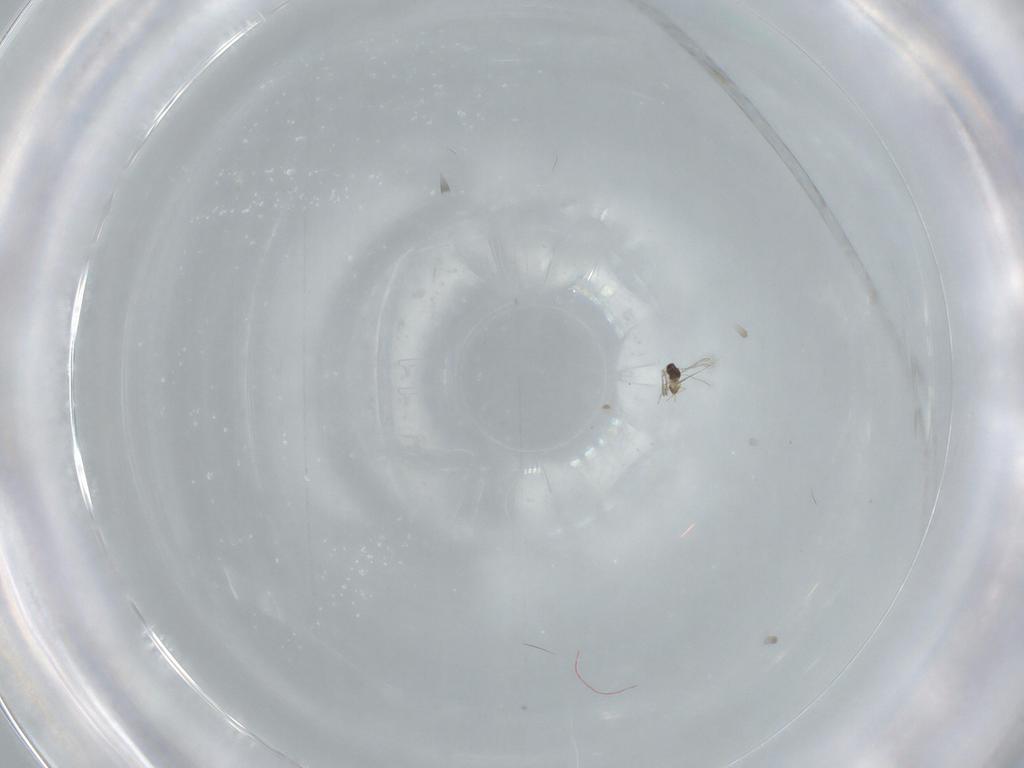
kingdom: Animalia
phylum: Arthropoda
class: Insecta
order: Hymenoptera
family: Mymaridae
